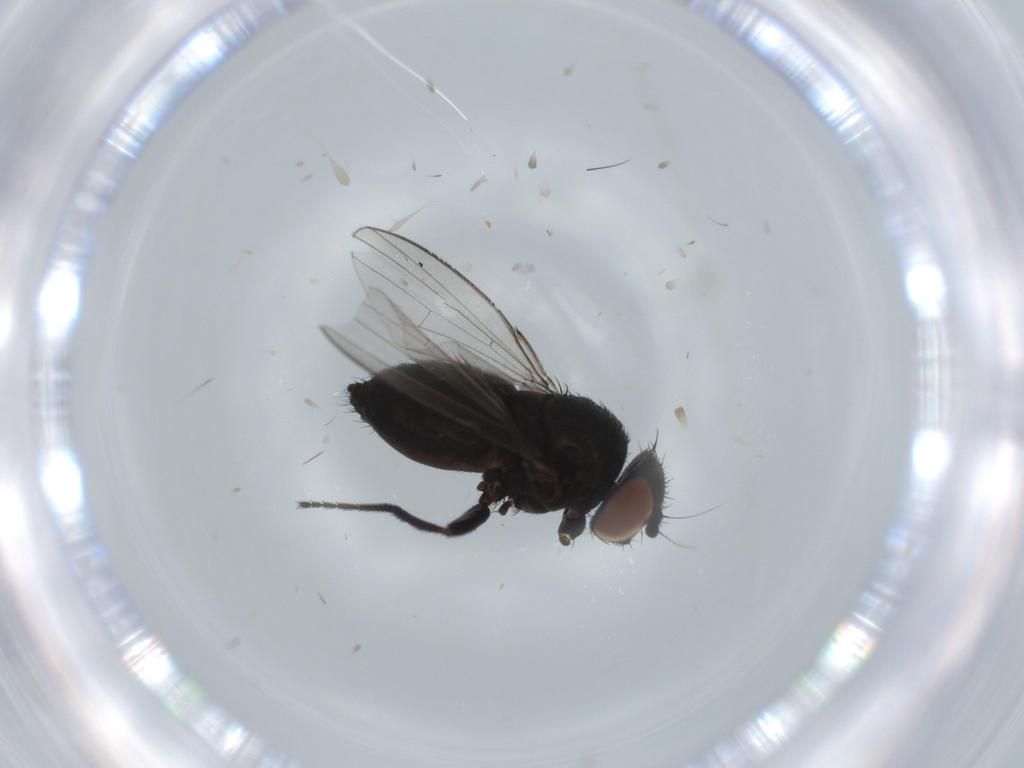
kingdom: Animalia
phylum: Arthropoda
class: Insecta
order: Diptera
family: Milichiidae
